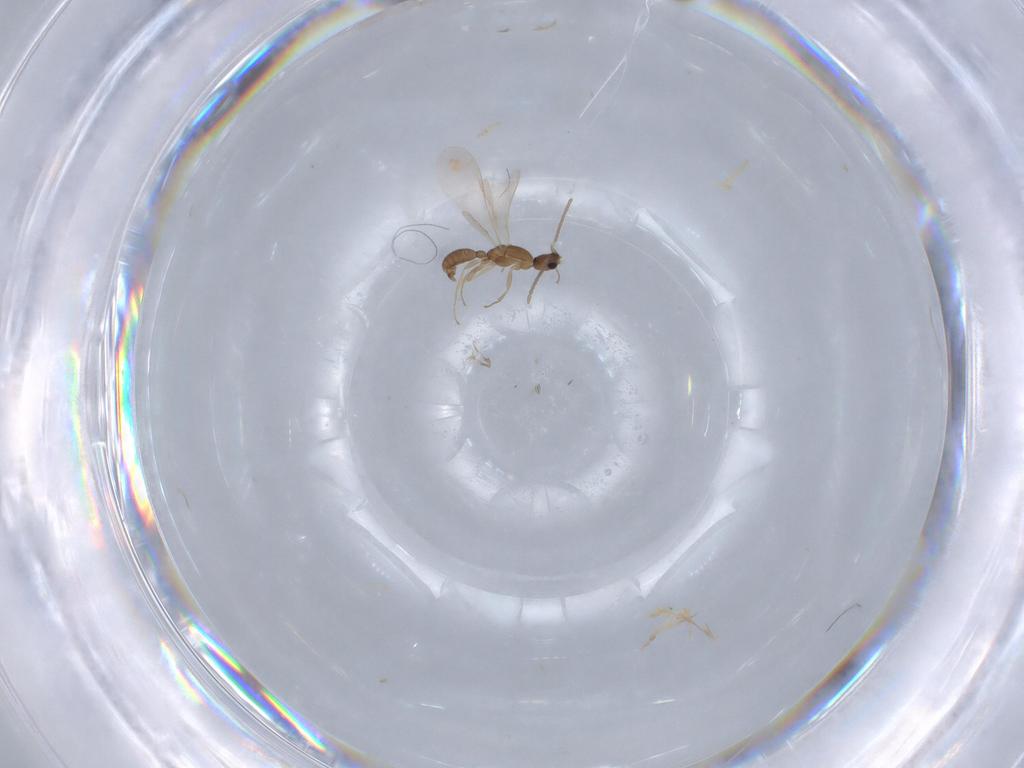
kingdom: Animalia
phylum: Arthropoda
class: Insecta
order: Hymenoptera
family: Formicidae
